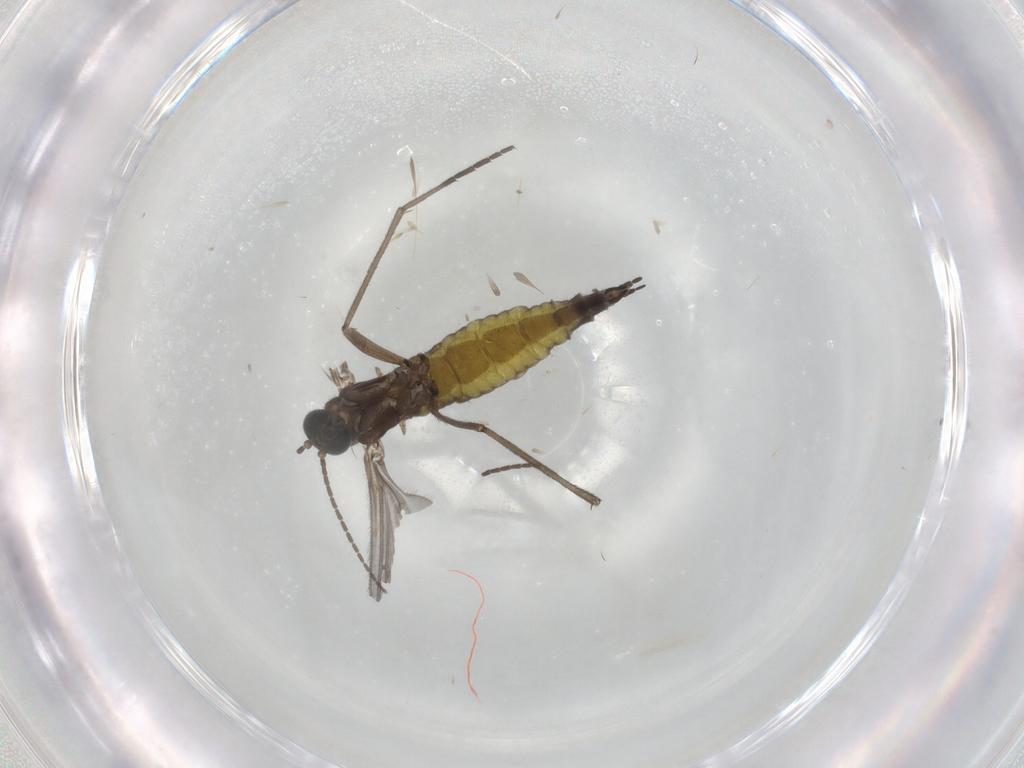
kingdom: Animalia
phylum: Arthropoda
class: Insecta
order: Diptera
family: Sciaridae
